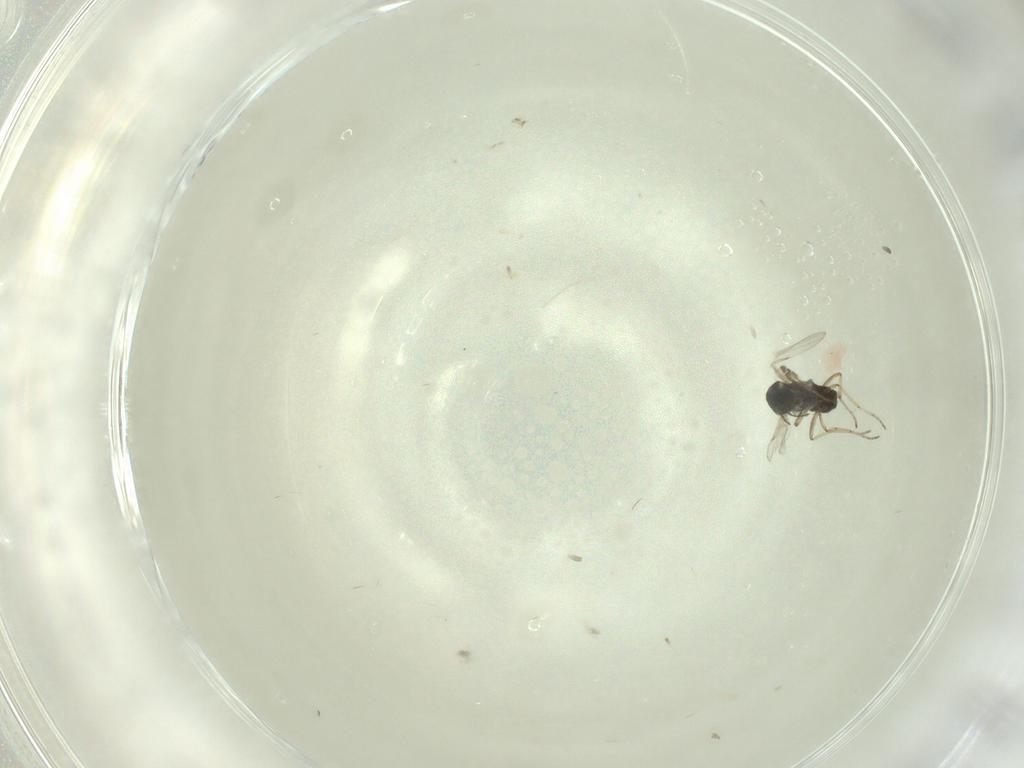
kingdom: Animalia
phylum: Arthropoda
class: Insecta
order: Diptera
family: Ceratopogonidae
